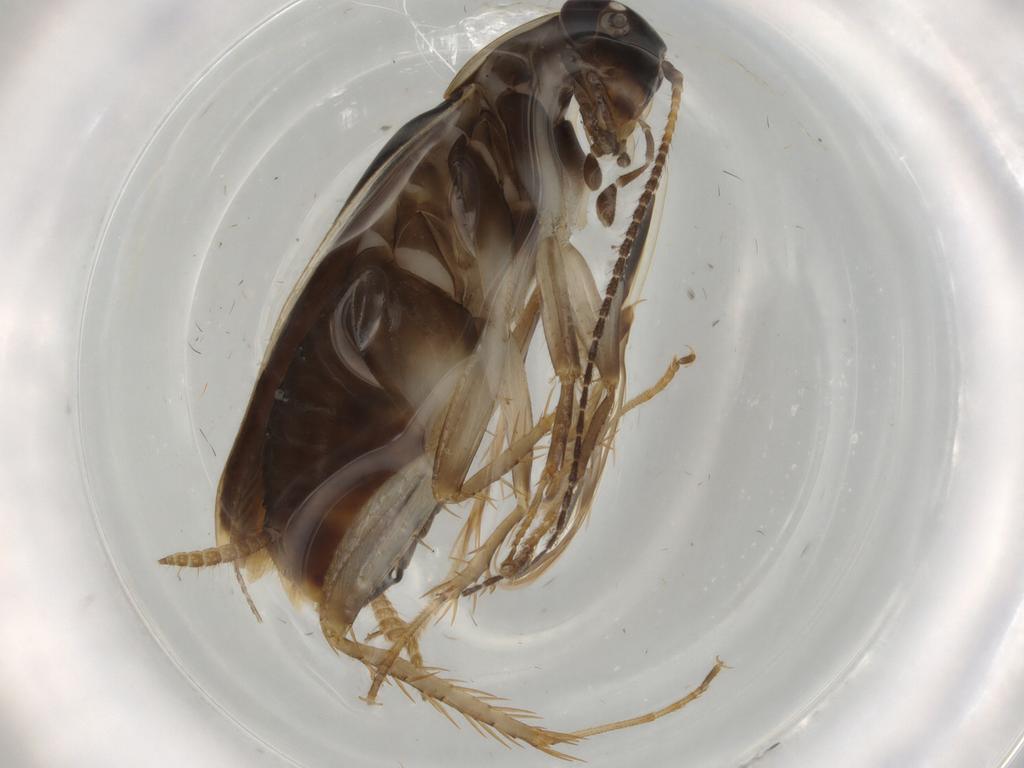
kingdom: Animalia
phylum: Arthropoda
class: Insecta
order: Blattodea
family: Ectobiidae
